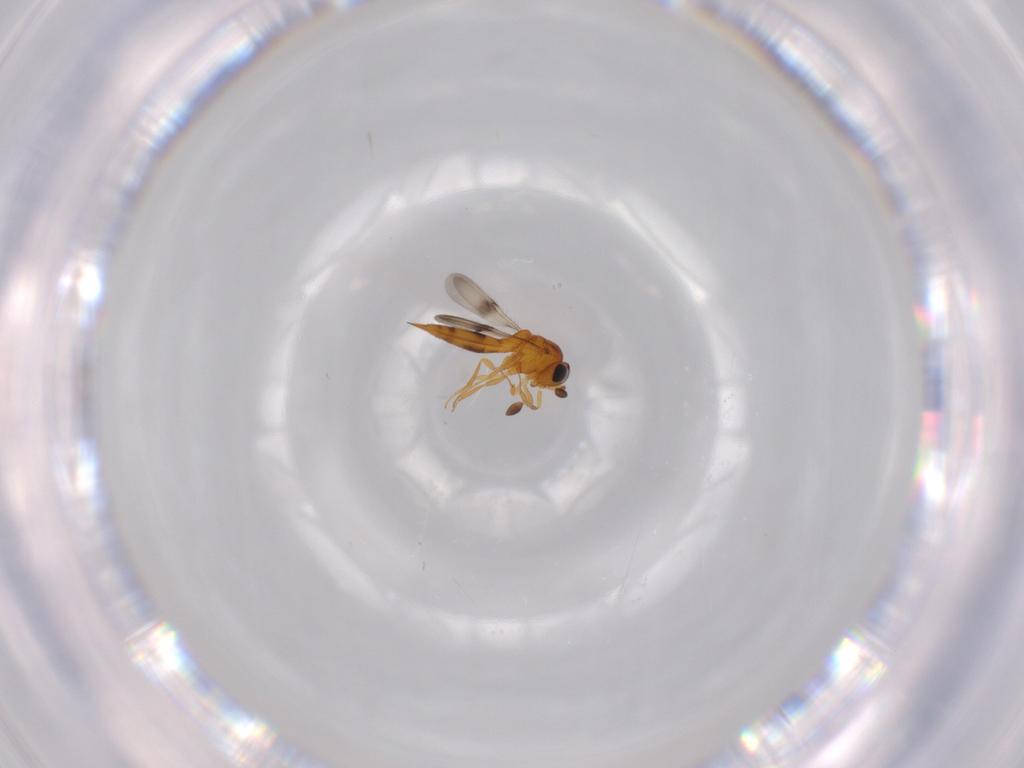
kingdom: Animalia
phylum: Arthropoda
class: Insecta
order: Hymenoptera
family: Scelionidae
